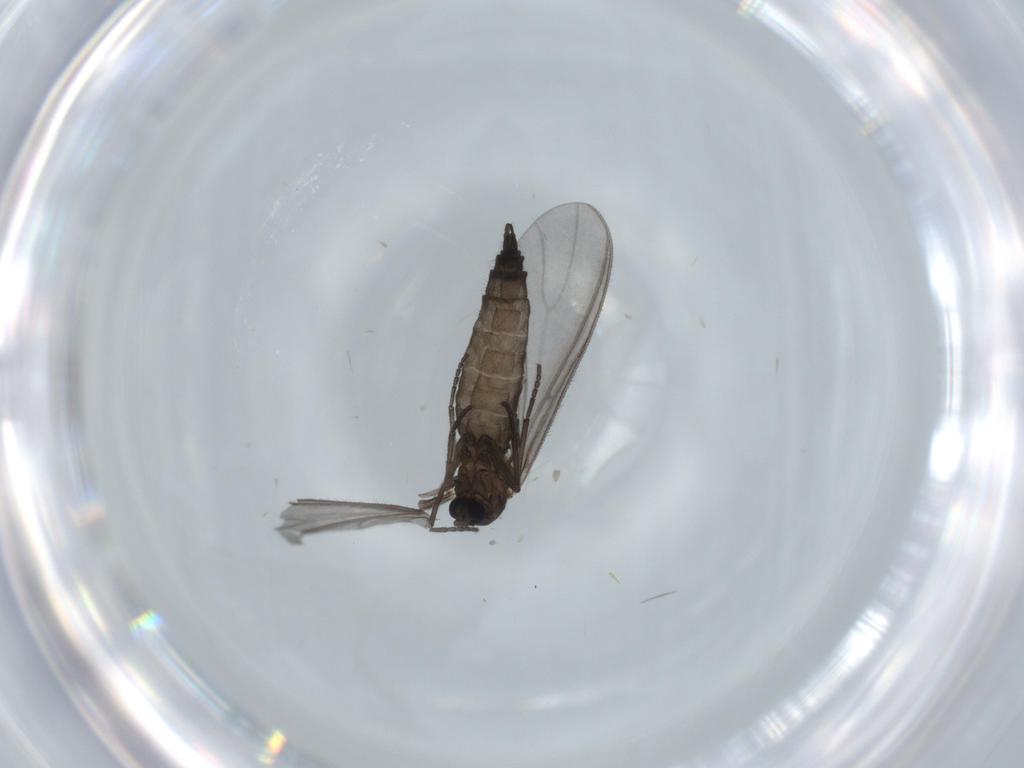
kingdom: Animalia
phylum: Arthropoda
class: Insecta
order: Diptera
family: Sciaridae
